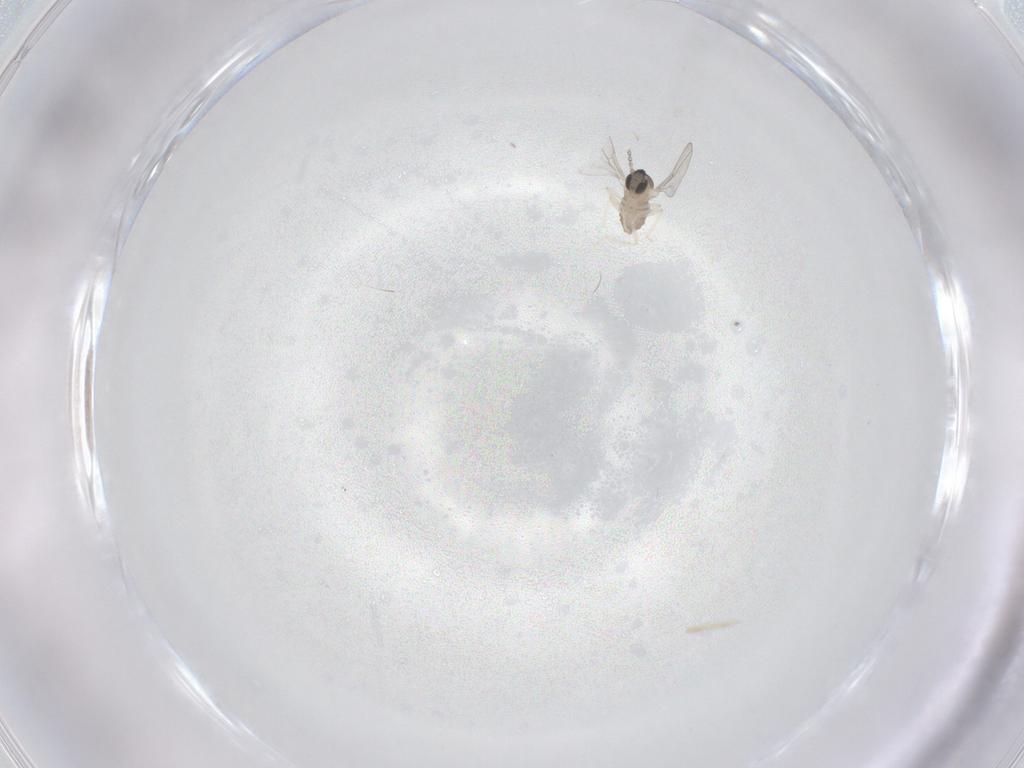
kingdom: Animalia
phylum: Arthropoda
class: Insecta
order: Diptera
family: Cecidomyiidae
